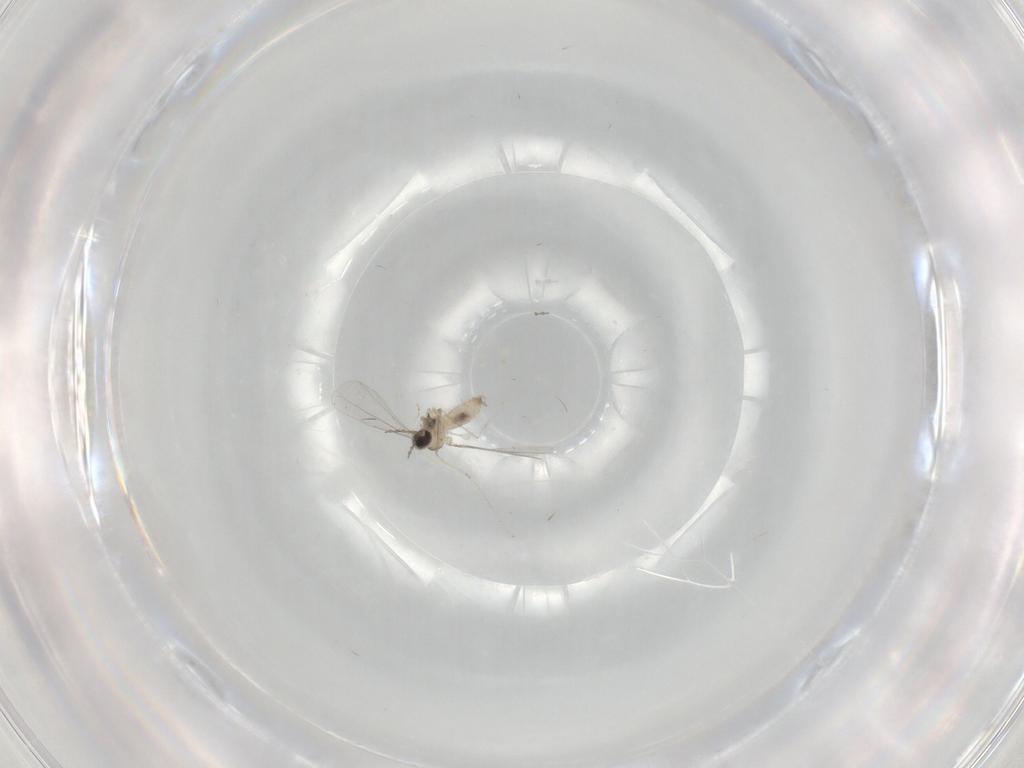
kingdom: Animalia
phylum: Arthropoda
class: Insecta
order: Diptera
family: Cecidomyiidae
